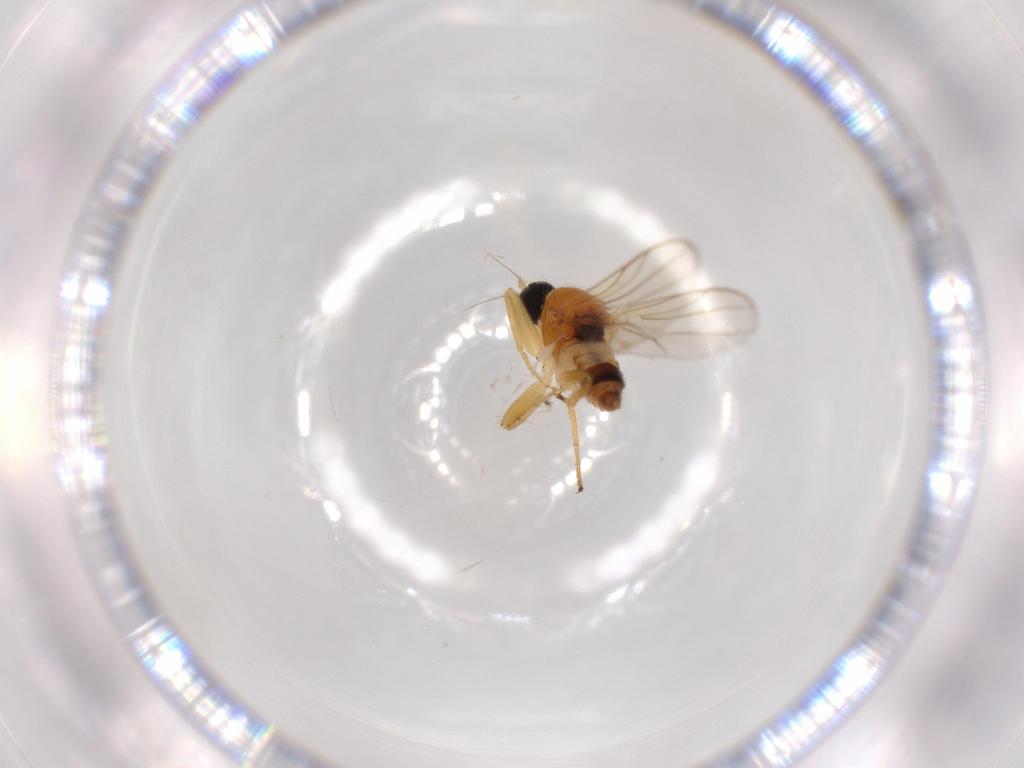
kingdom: Animalia
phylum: Arthropoda
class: Insecta
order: Diptera
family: Hybotidae
